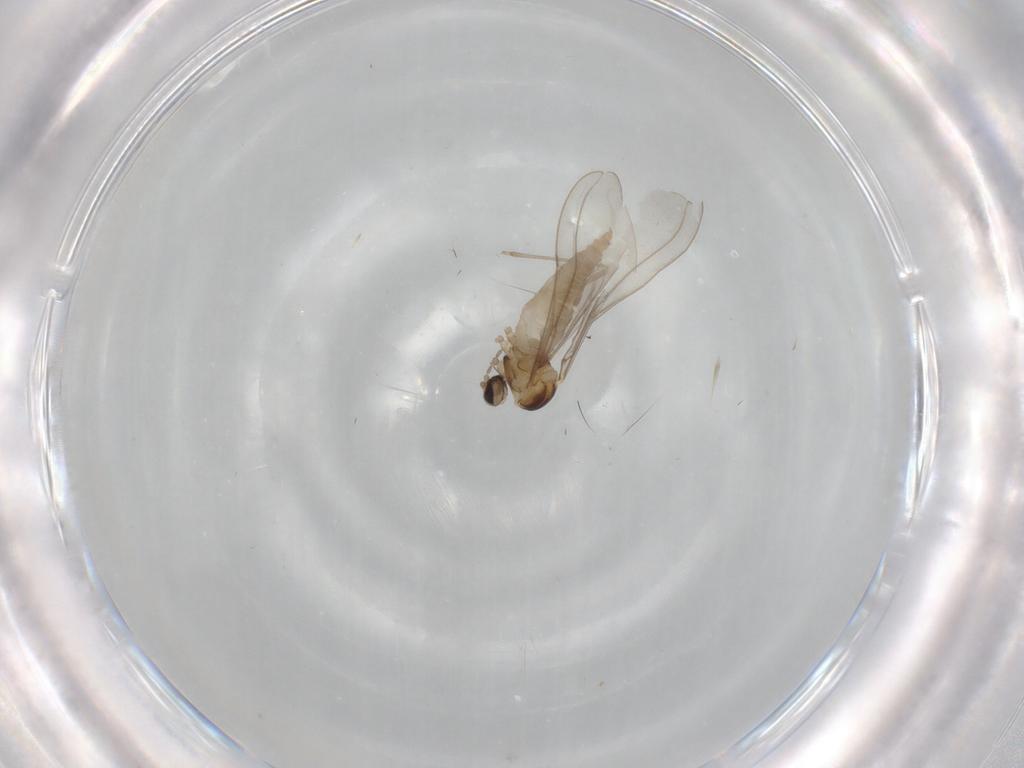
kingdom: Animalia
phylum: Arthropoda
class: Insecta
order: Diptera
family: Cecidomyiidae
